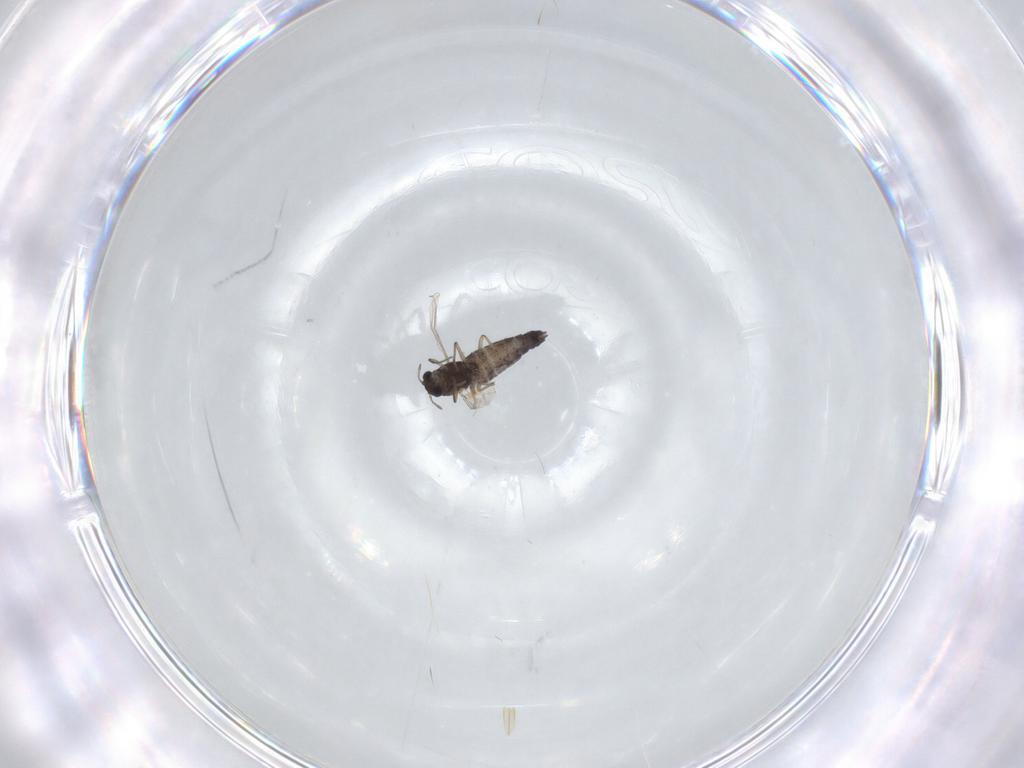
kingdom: Animalia
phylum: Arthropoda
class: Insecta
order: Diptera
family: Chironomidae
